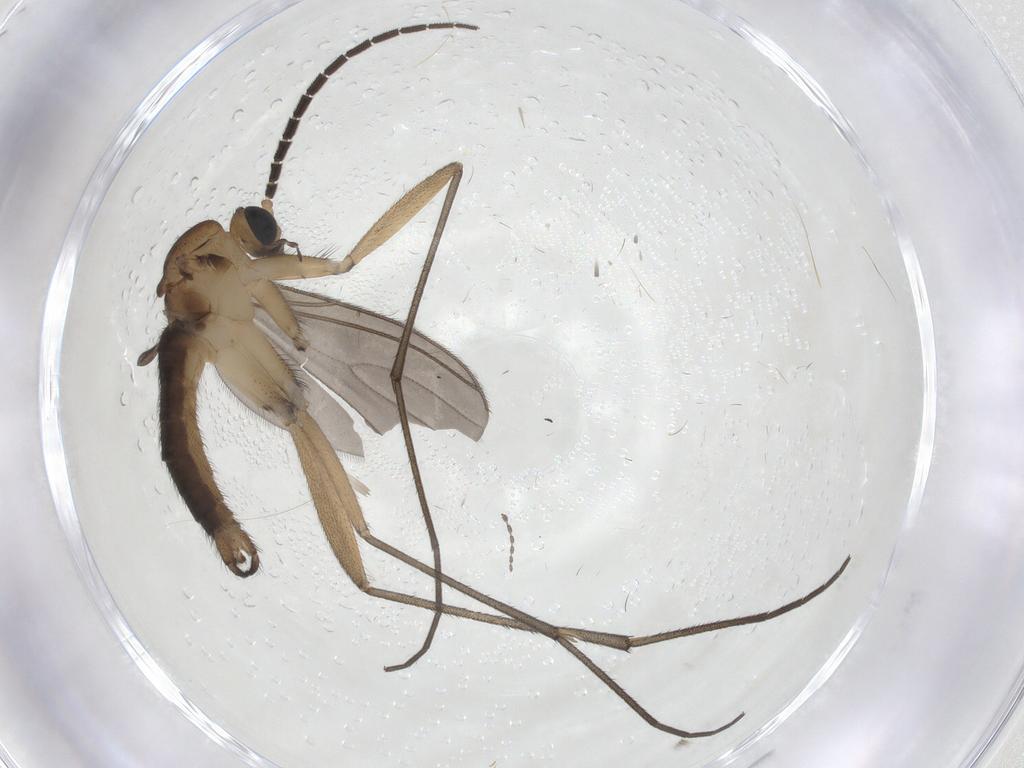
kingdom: Animalia
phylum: Arthropoda
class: Insecta
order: Diptera
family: Sciaridae
